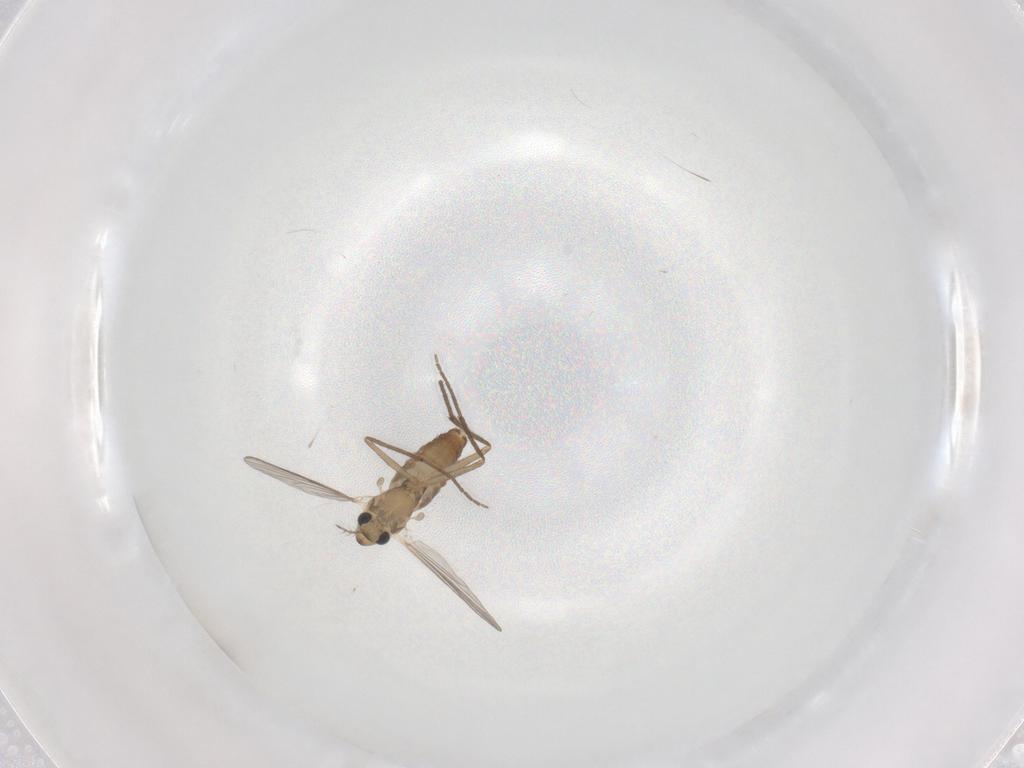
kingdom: Animalia
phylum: Arthropoda
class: Insecta
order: Diptera
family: Chironomidae
